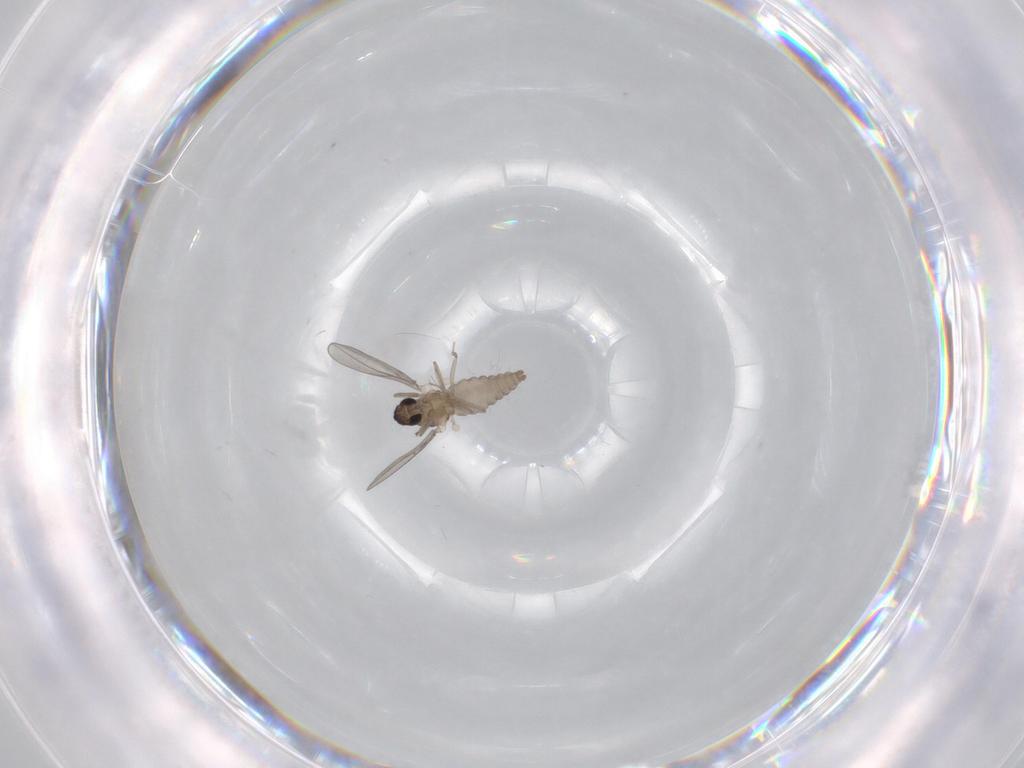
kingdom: Animalia
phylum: Arthropoda
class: Insecta
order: Diptera
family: Cecidomyiidae
